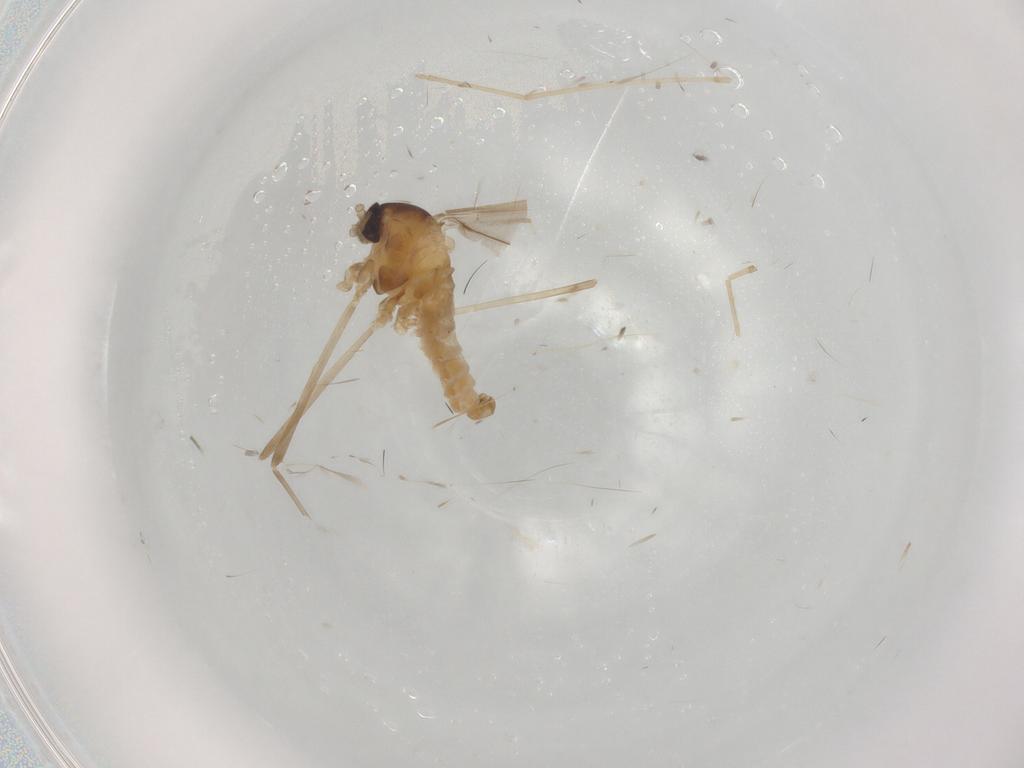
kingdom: Animalia
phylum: Arthropoda
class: Insecta
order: Diptera
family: Cecidomyiidae
